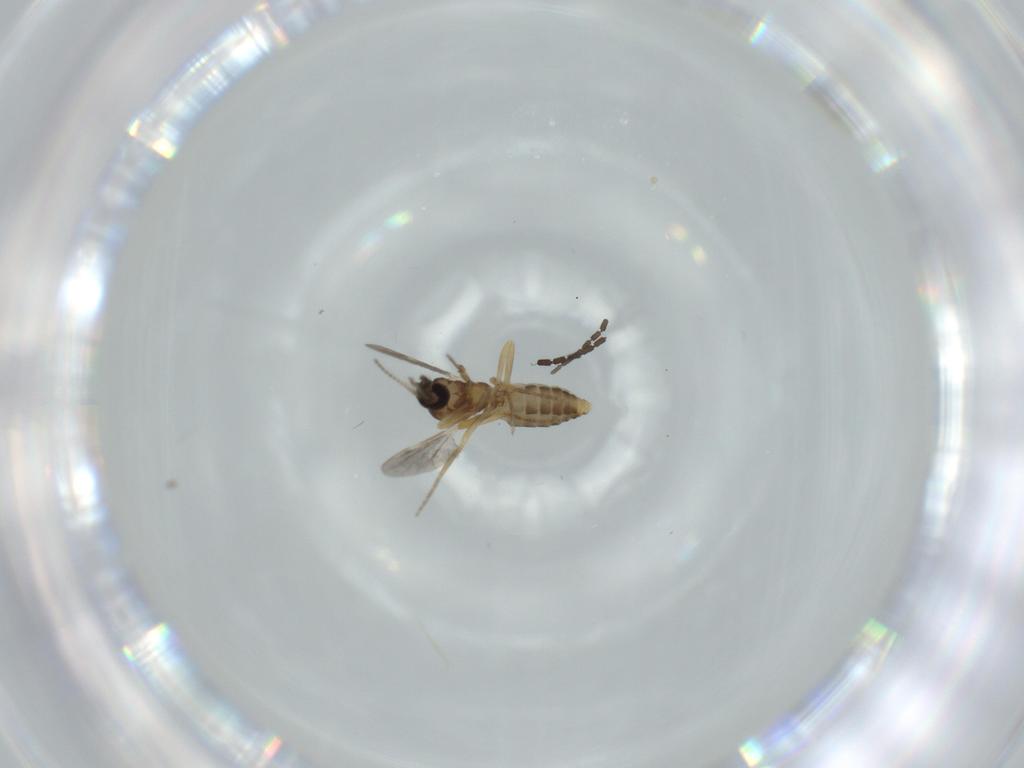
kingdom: Animalia
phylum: Arthropoda
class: Insecta
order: Diptera
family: Ceratopogonidae
